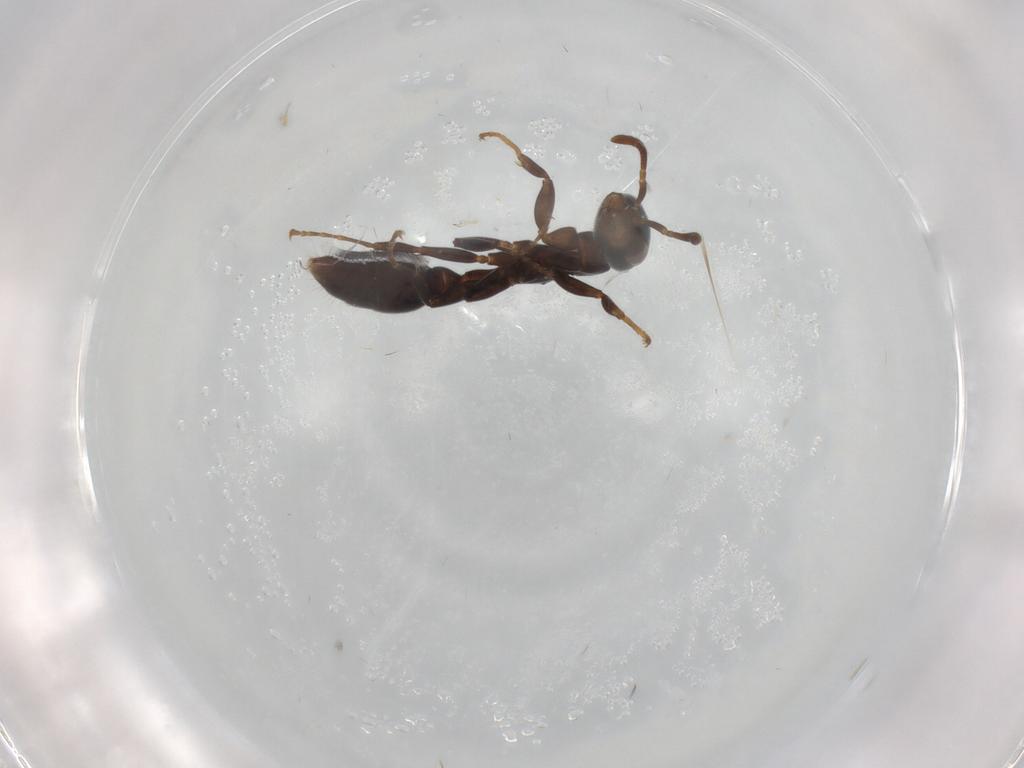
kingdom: Animalia
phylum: Arthropoda
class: Insecta
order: Hymenoptera
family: Formicidae
